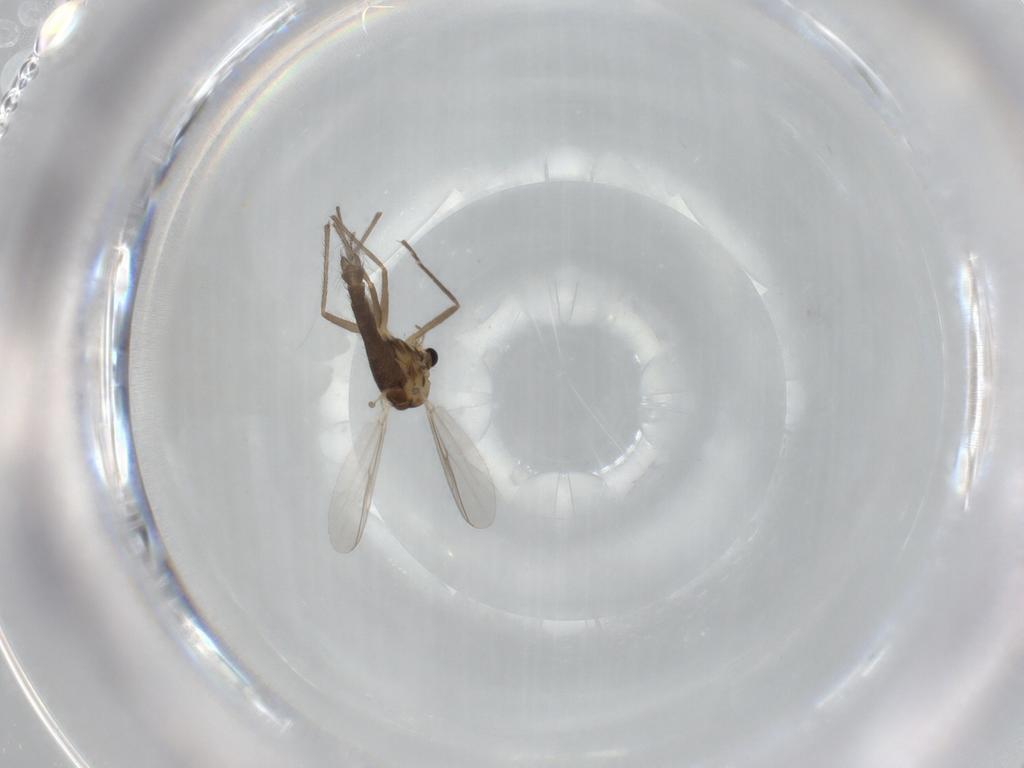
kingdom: Animalia
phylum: Arthropoda
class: Insecta
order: Diptera
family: Chironomidae
